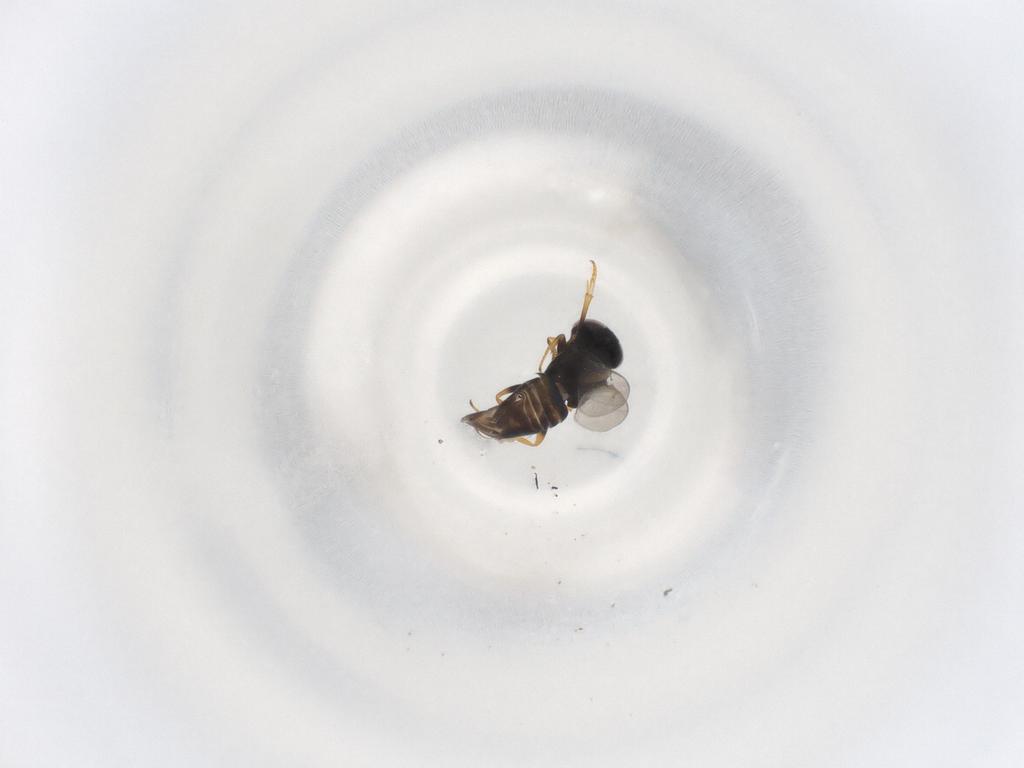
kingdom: Animalia
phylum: Arthropoda
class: Insecta
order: Hymenoptera
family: Encyrtidae
